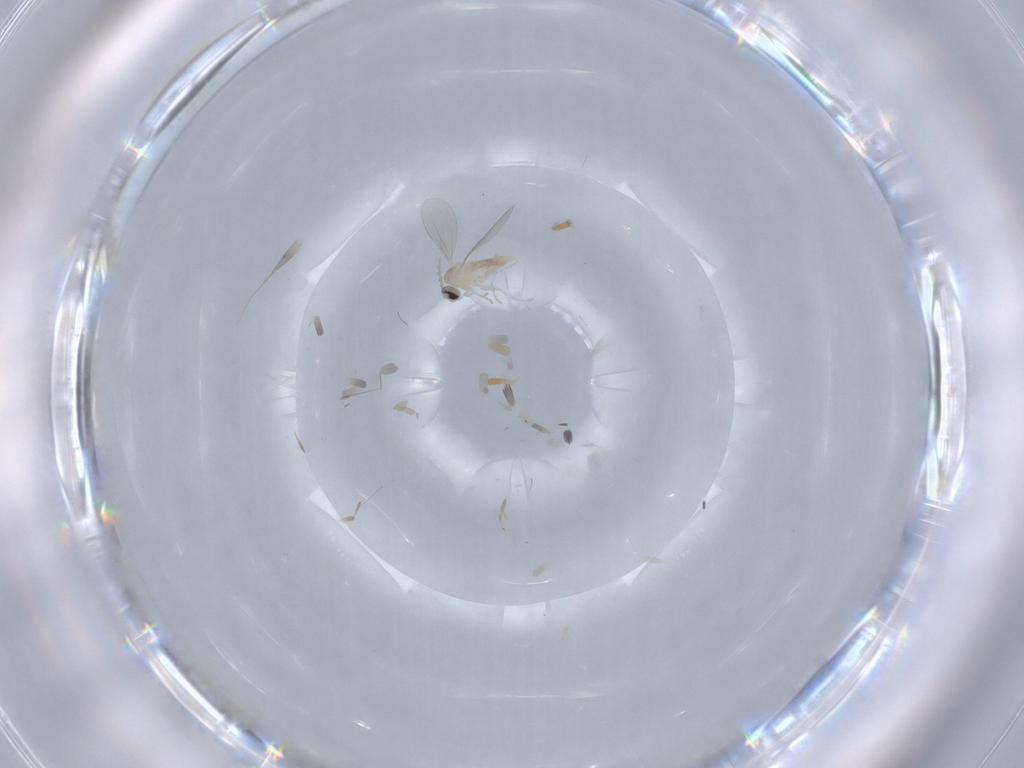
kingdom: Animalia
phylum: Arthropoda
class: Insecta
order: Diptera
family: Cecidomyiidae
